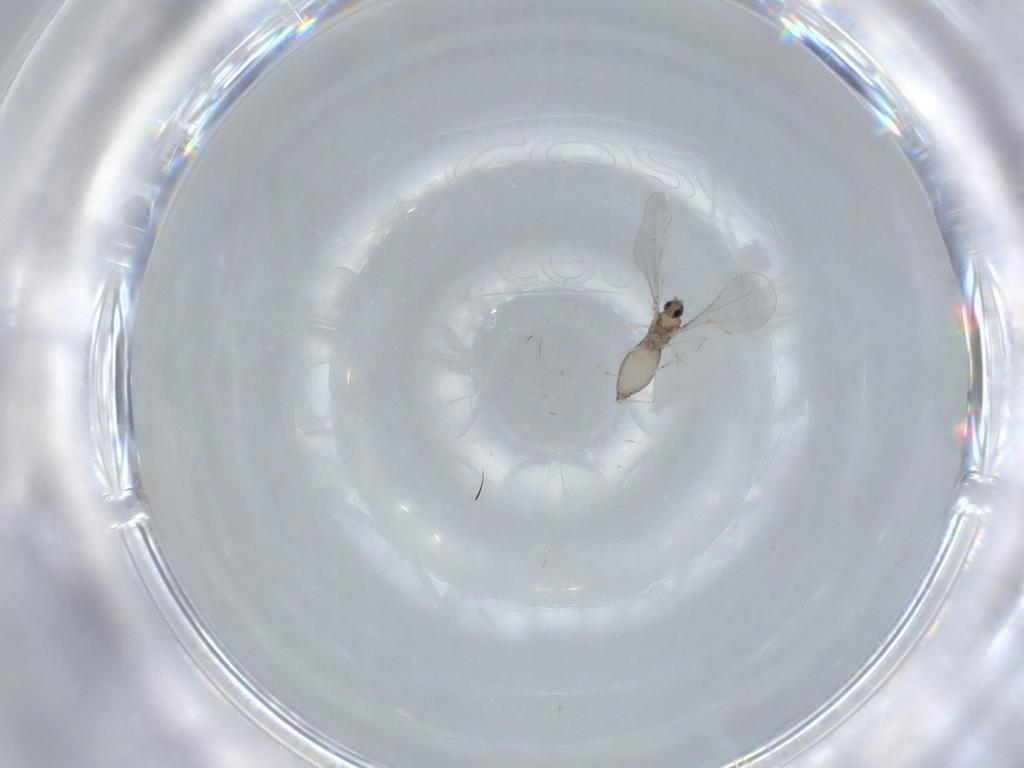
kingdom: Animalia
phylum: Arthropoda
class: Insecta
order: Diptera
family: Cecidomyiidae
